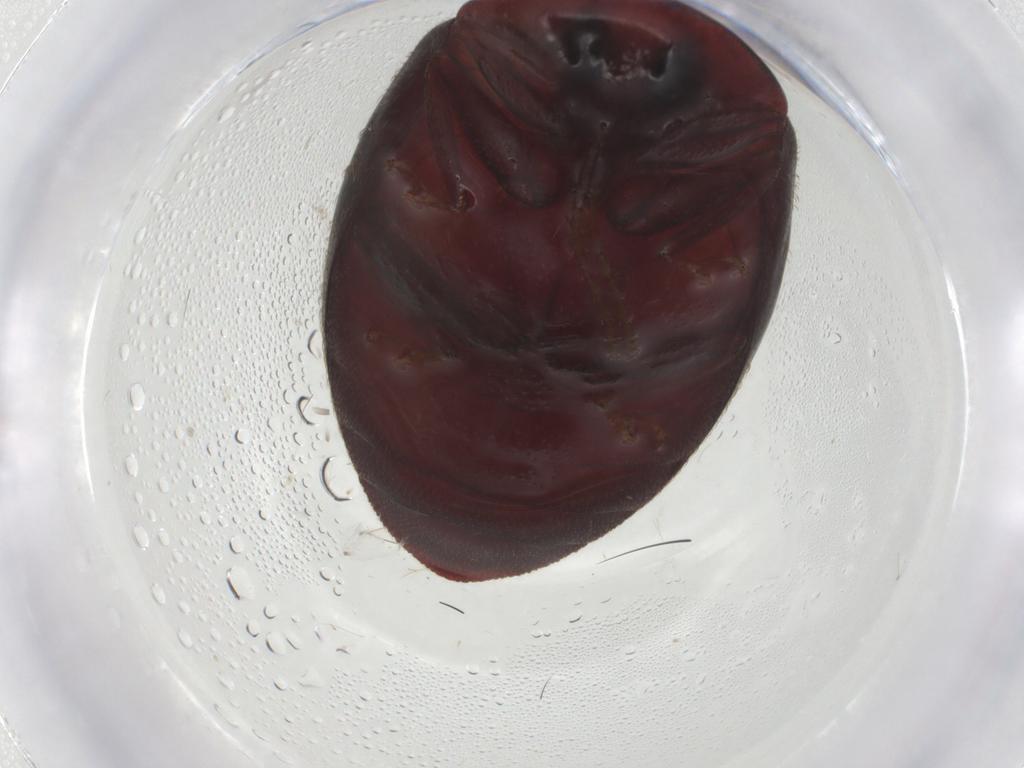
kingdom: Animalia
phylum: Arthropoda
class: Insecta
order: Coleoptera
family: Chelonariidae
